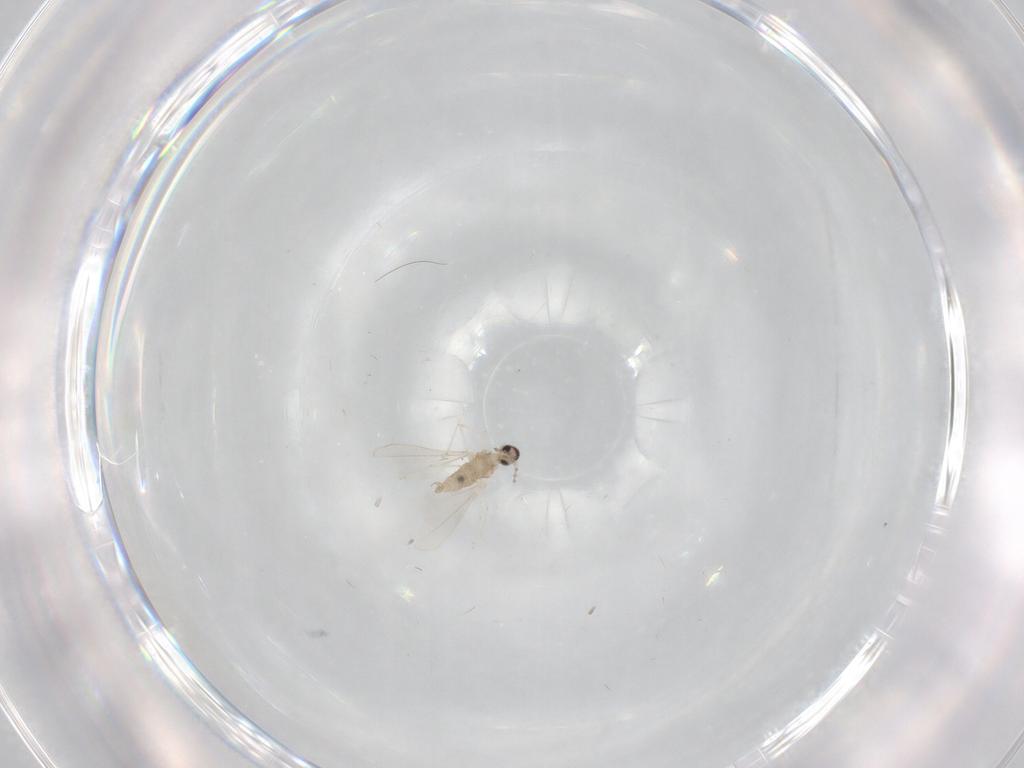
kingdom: Animalia
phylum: Arthropoda
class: Insecta
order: Diptera
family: Cecidomyiidae
